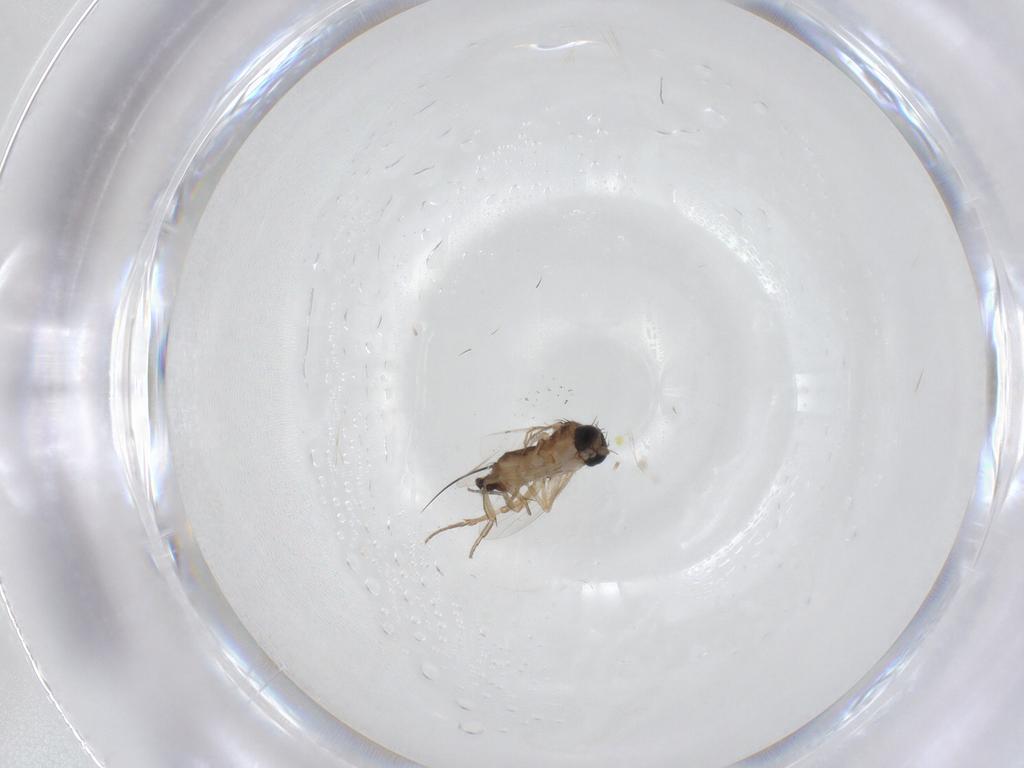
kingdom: Animalia
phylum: Arthropoda
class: Insecta
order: Diptera
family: Phoridae
